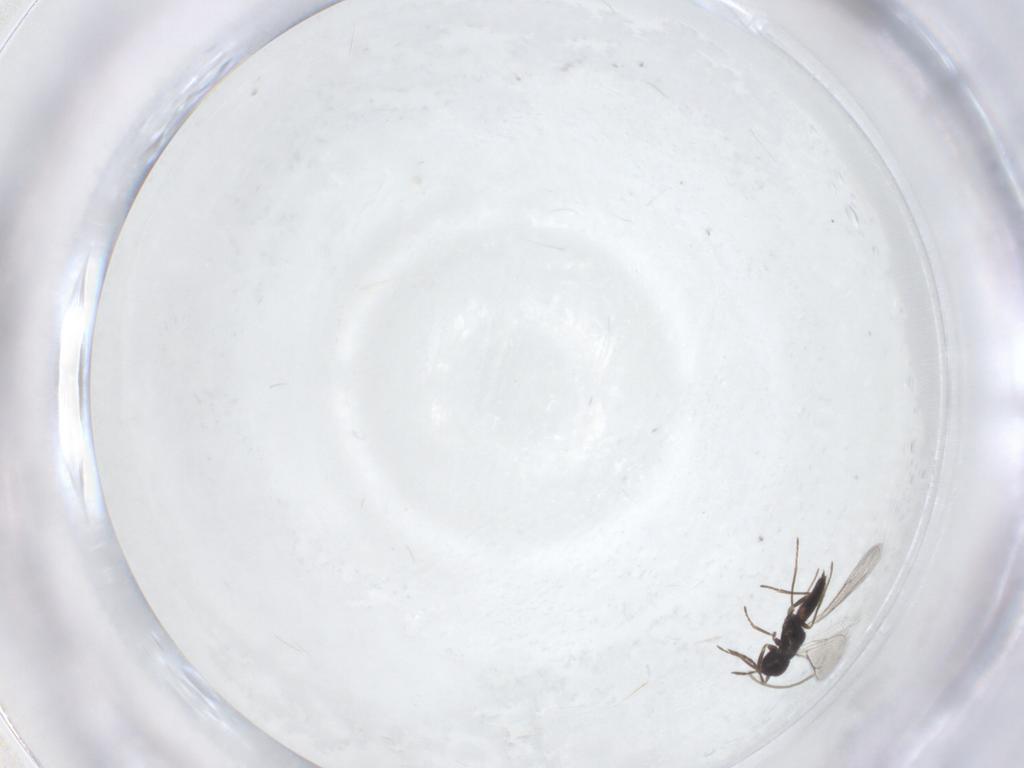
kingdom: Animalia
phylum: Arthropoda
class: Insecta
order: Hymenoptera
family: Eulophidae
